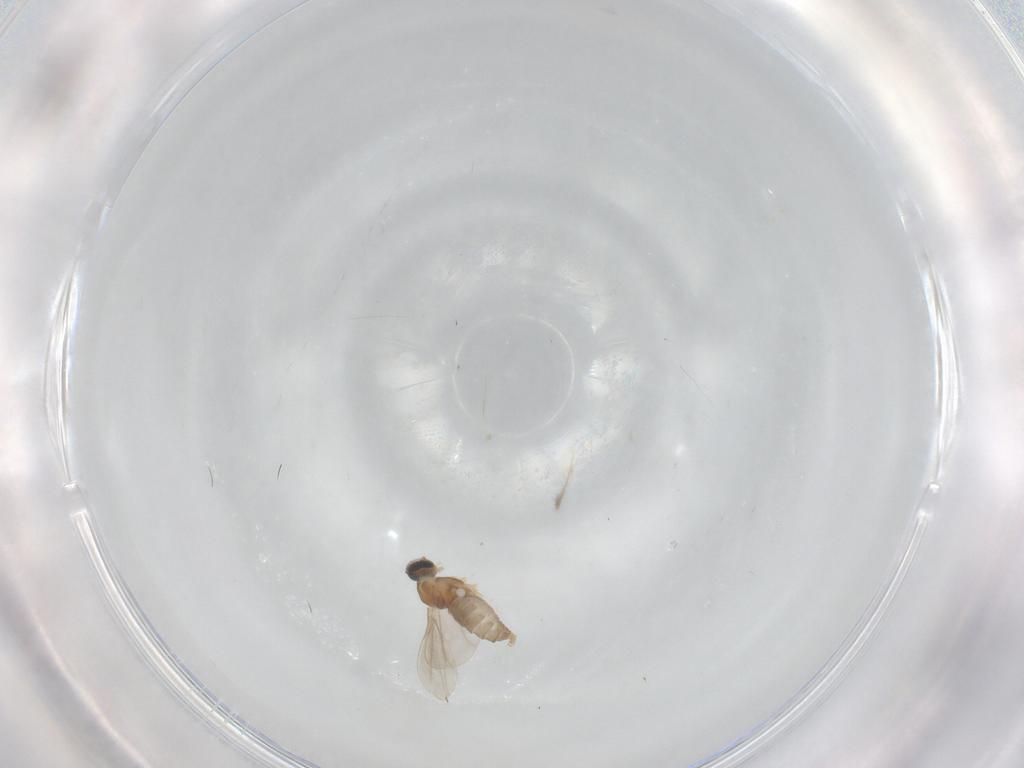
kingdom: Animalia
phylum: Arthropoda
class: Insecta
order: Diptera
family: Cecidomyiidae
